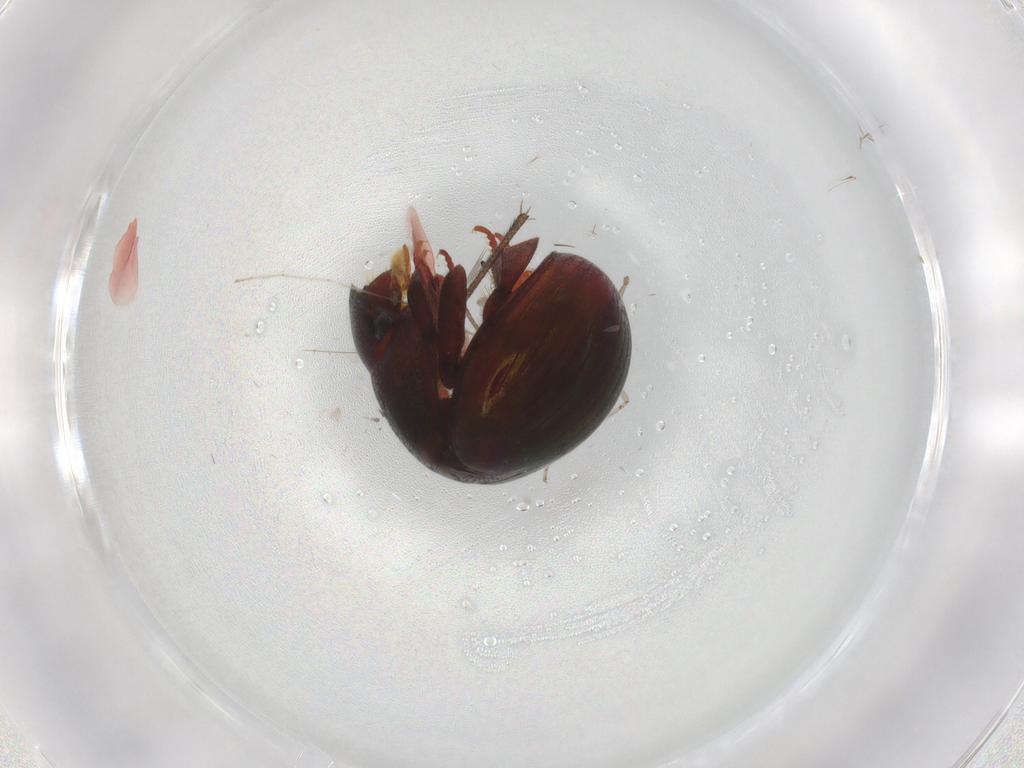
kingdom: Animalia
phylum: Arthropoda
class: Insecta
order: Coleoptera
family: Hybosoridae
